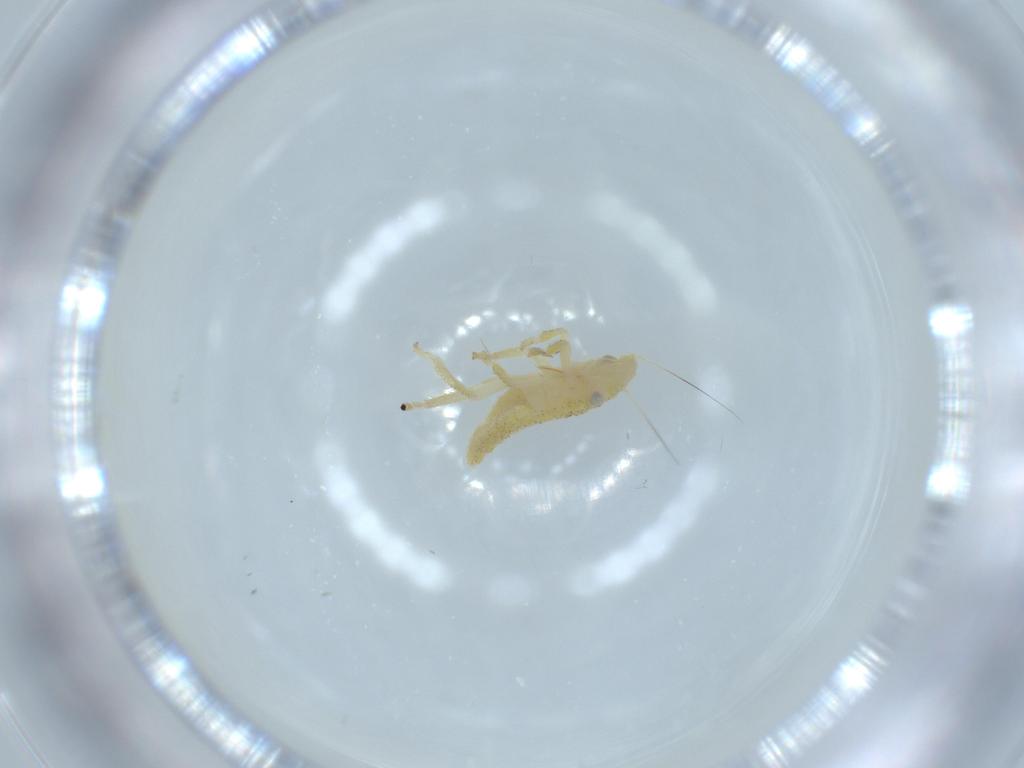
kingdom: Animalia
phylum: Arthropoda
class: Insecta
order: Hemiptera
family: Cicadellidae
